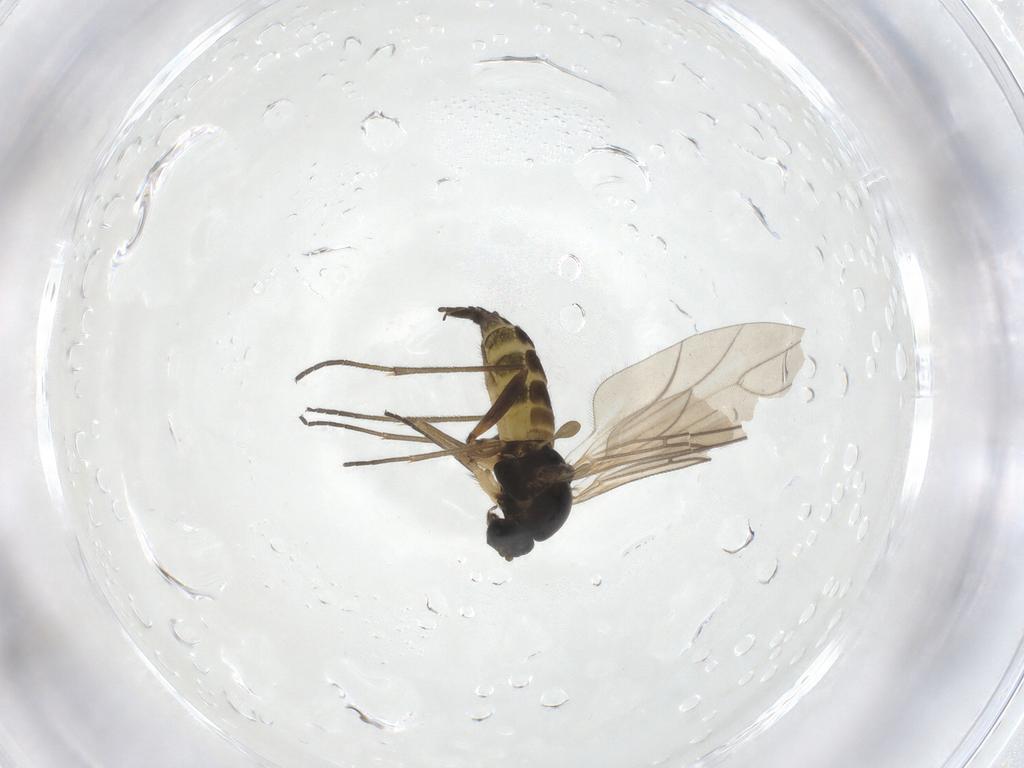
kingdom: Animalia
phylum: Arthropoda
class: Insecta
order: Diptera
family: Sciaridae
